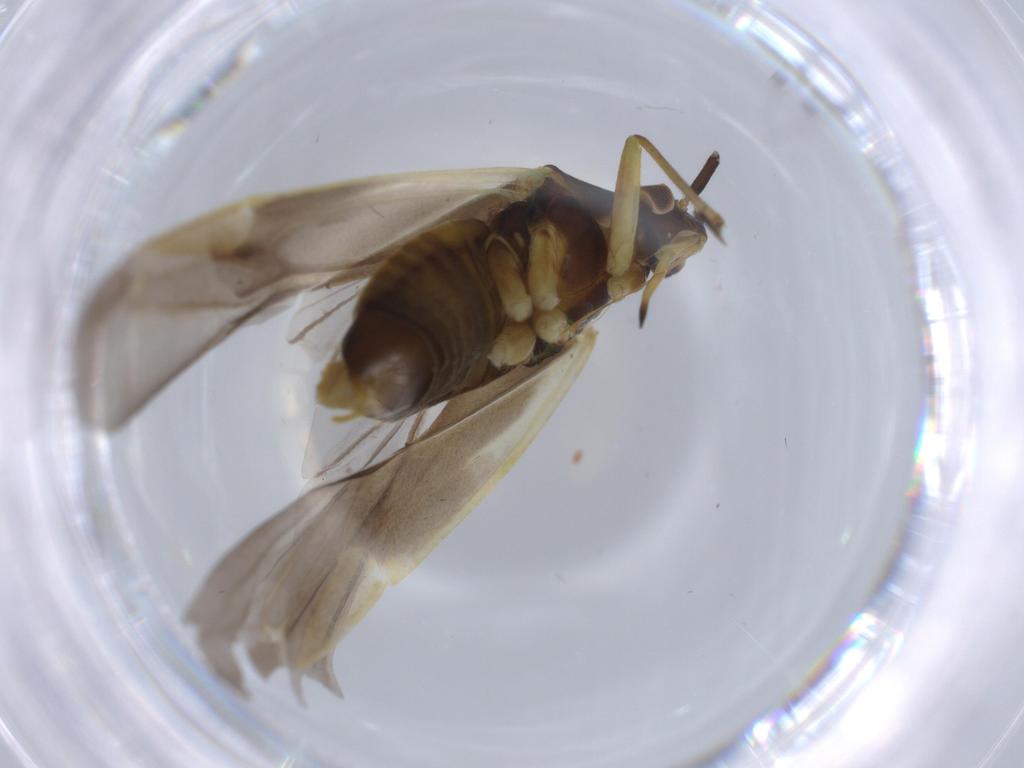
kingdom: Animalia
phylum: Arthropoda
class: Insecta
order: Hemiptera
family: Miridae
